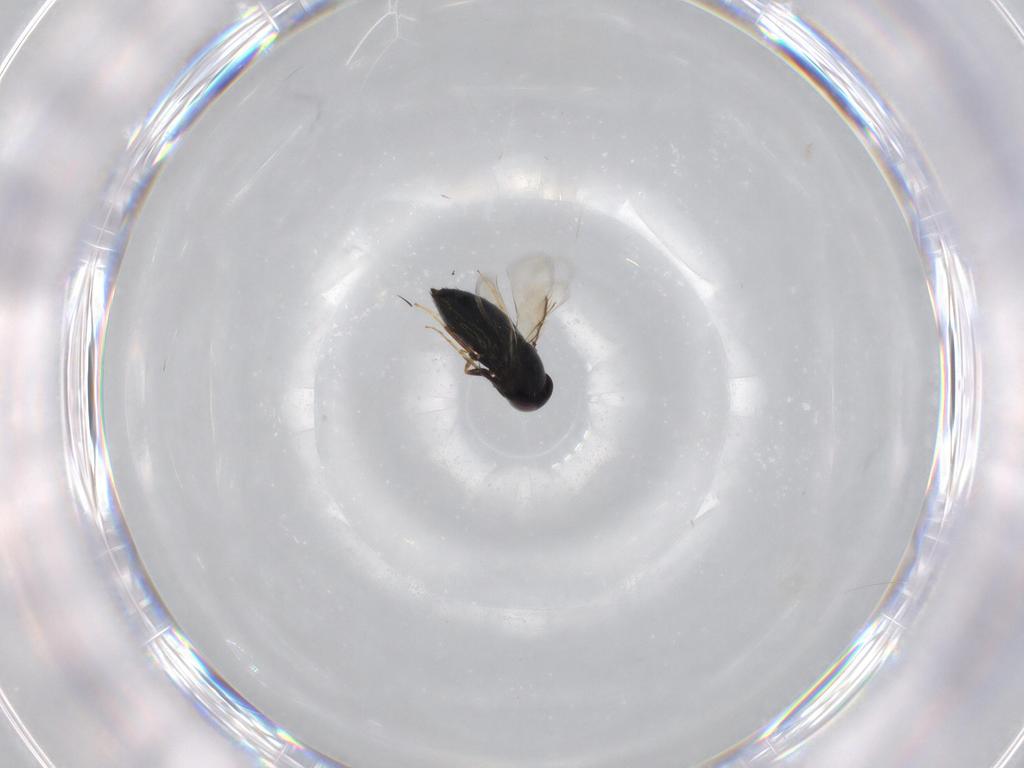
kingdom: Animalia
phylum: Arthropoda
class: Insecta
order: Hymenoptera
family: Signiphoridae
